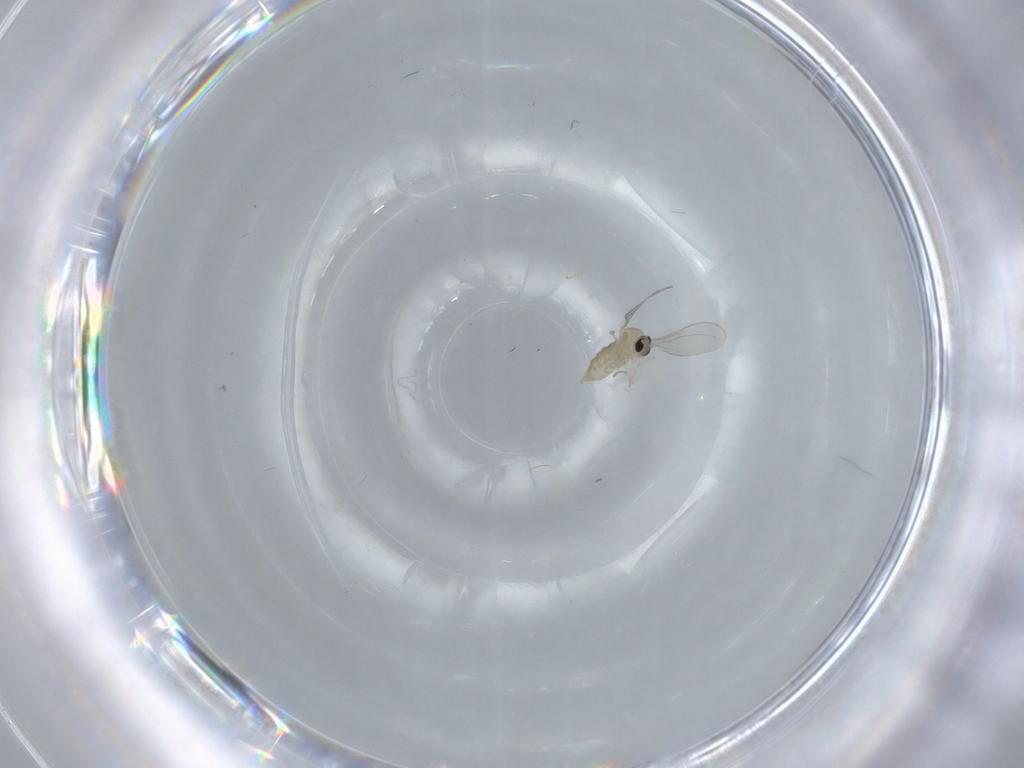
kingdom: Animalia
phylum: Arthropoda
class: Insecta
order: Diptera
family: Cecidomyiidae
